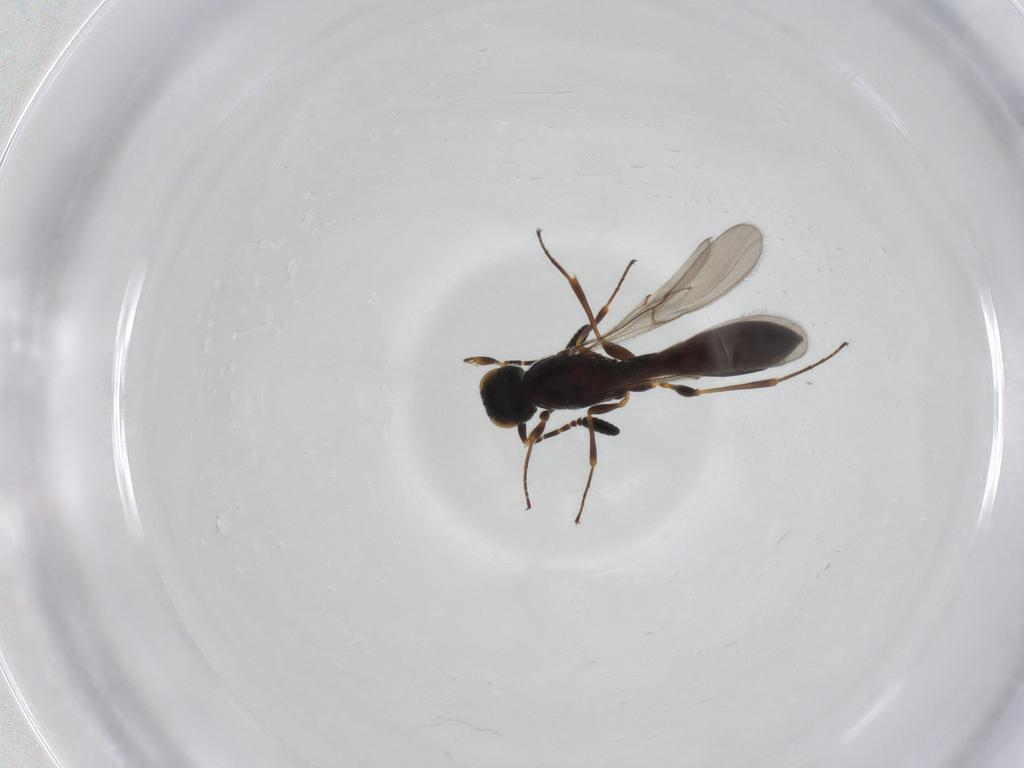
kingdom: Animalia
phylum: Arthropoda
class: Insecta
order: Hymenoptera
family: Scelionidae
